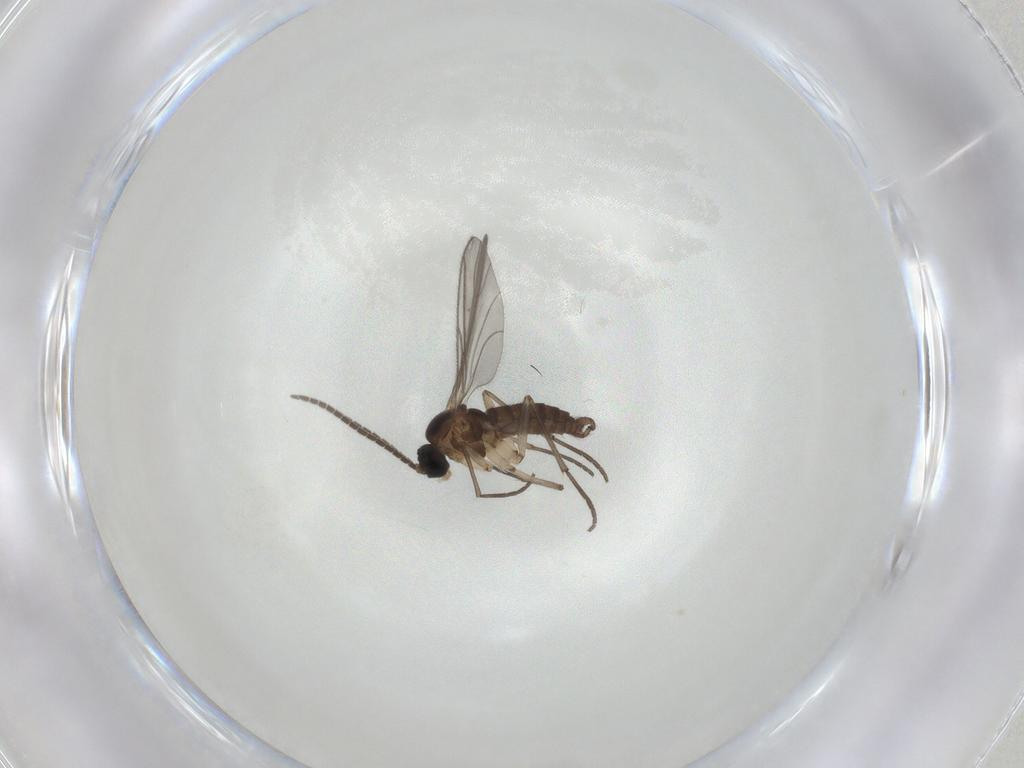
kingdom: Animalia
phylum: Arthropoda
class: Insecta
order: Diptera
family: Sciaridae
